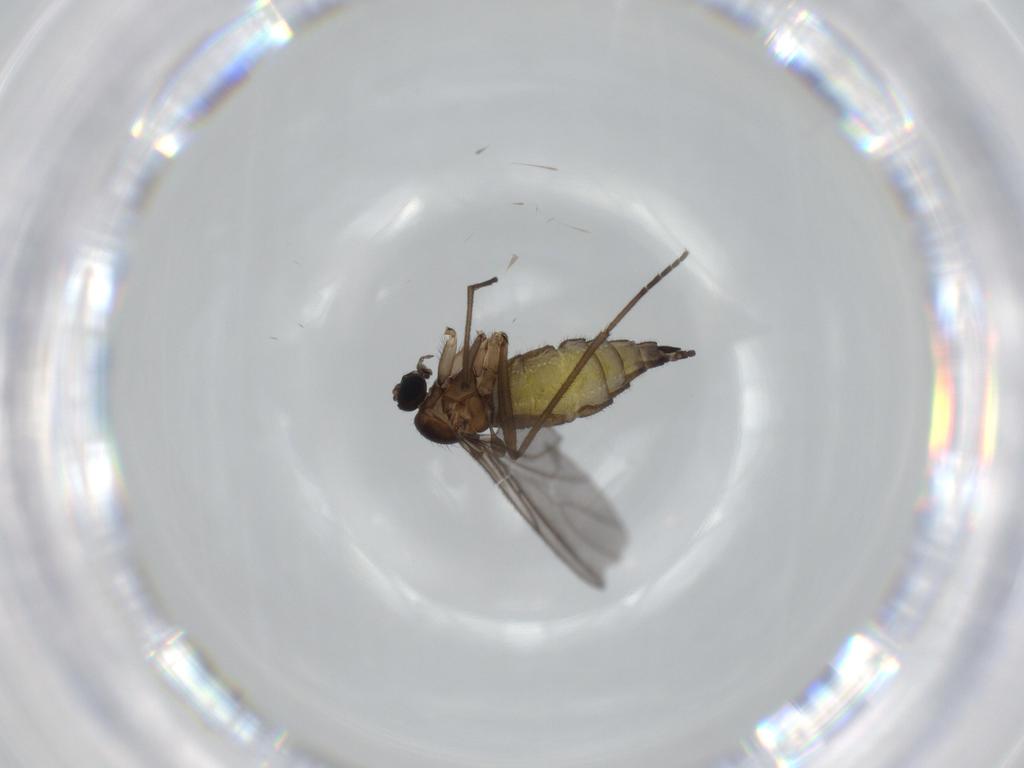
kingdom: Animalia
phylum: Arthropoda
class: Insecta
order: Diptera
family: Sciaridae
